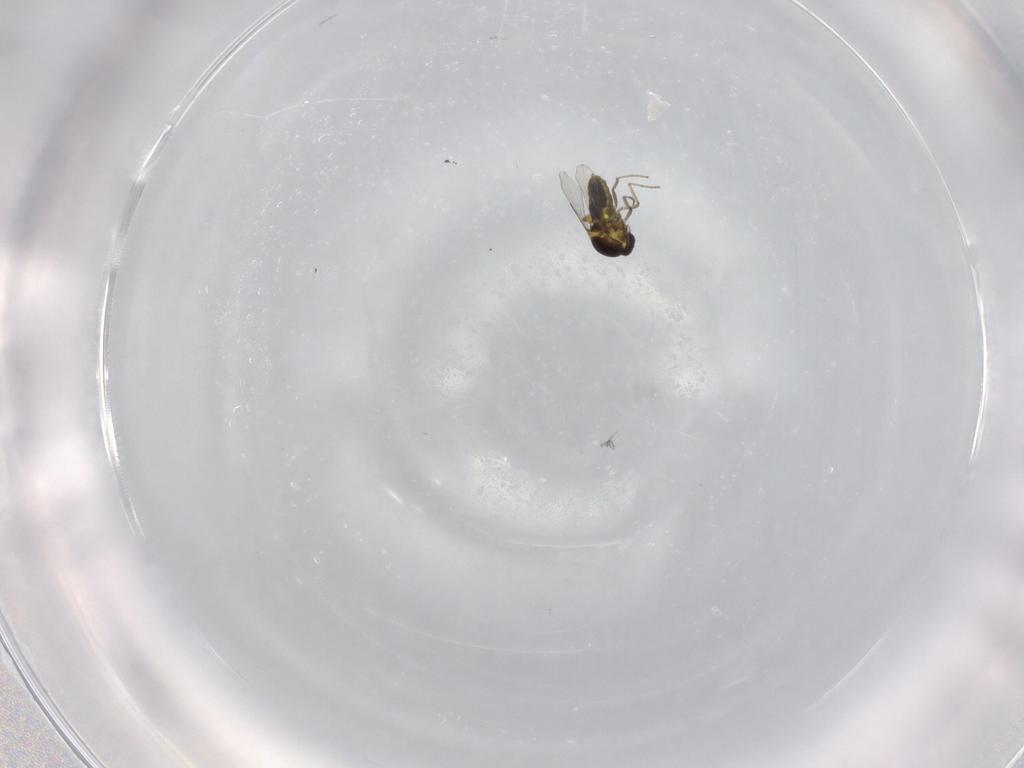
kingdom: Animalia
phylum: Arthropoda
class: Insecta
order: Diptera
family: Ceratopogonidae
